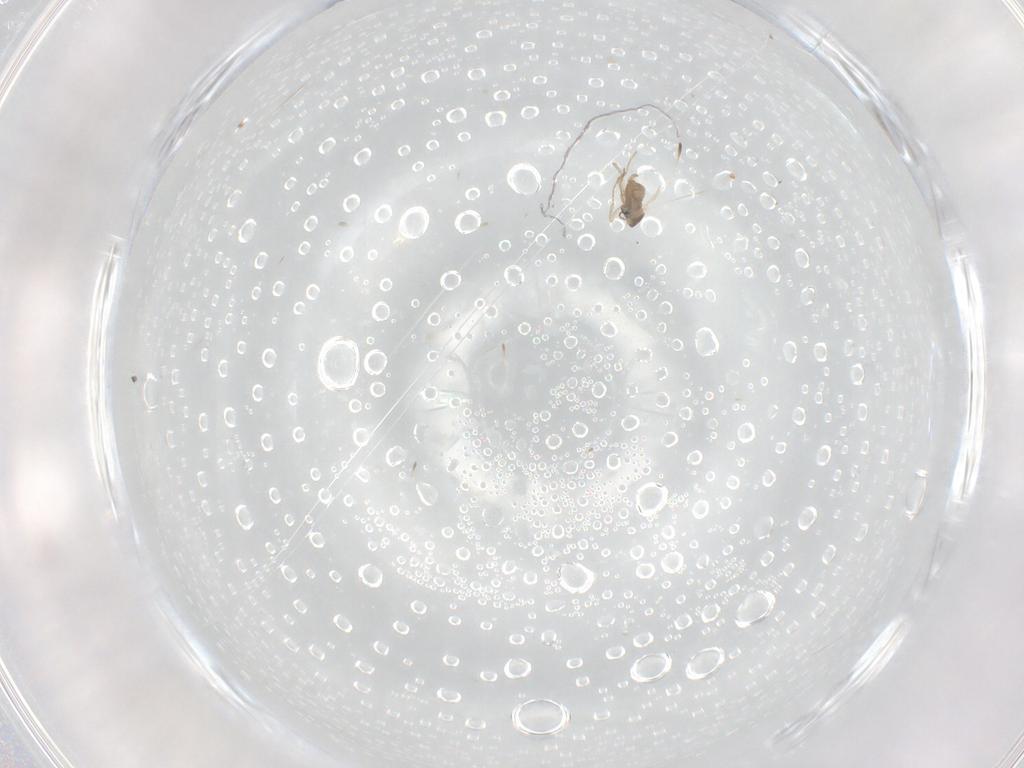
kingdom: Animalia
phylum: Arthropoda
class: Insecta
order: Diptera
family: Cecidomyiidae
